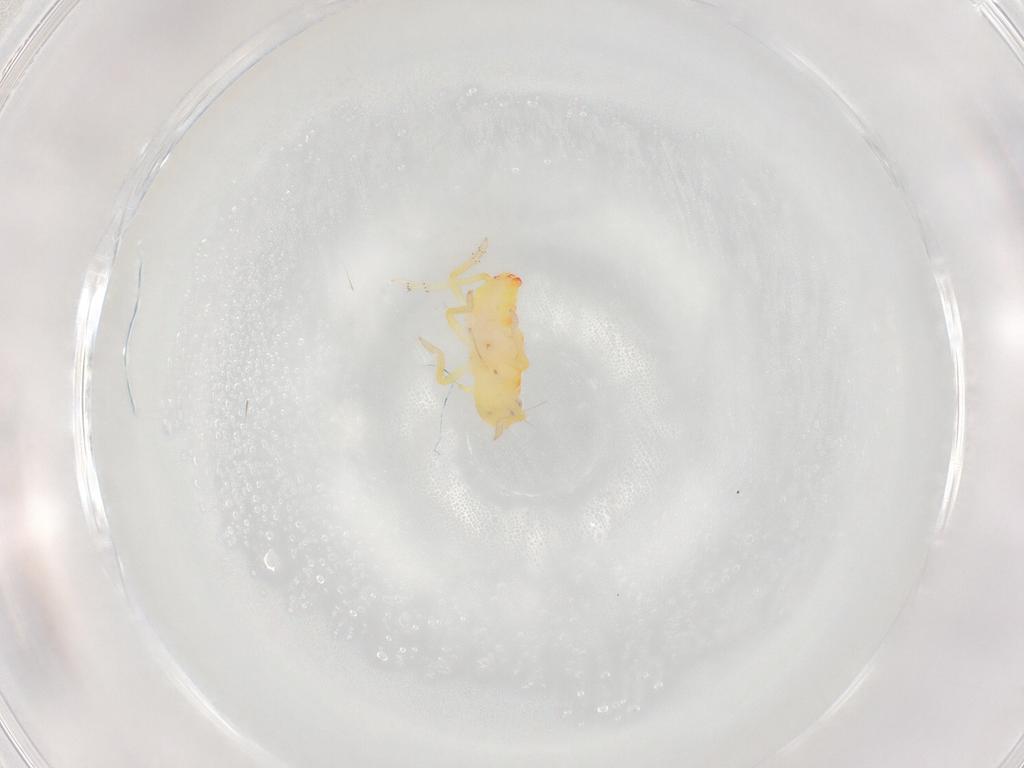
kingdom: Animalia
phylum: Arthropoda
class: Insecta
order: Hemiptera
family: Tropiduchidae
